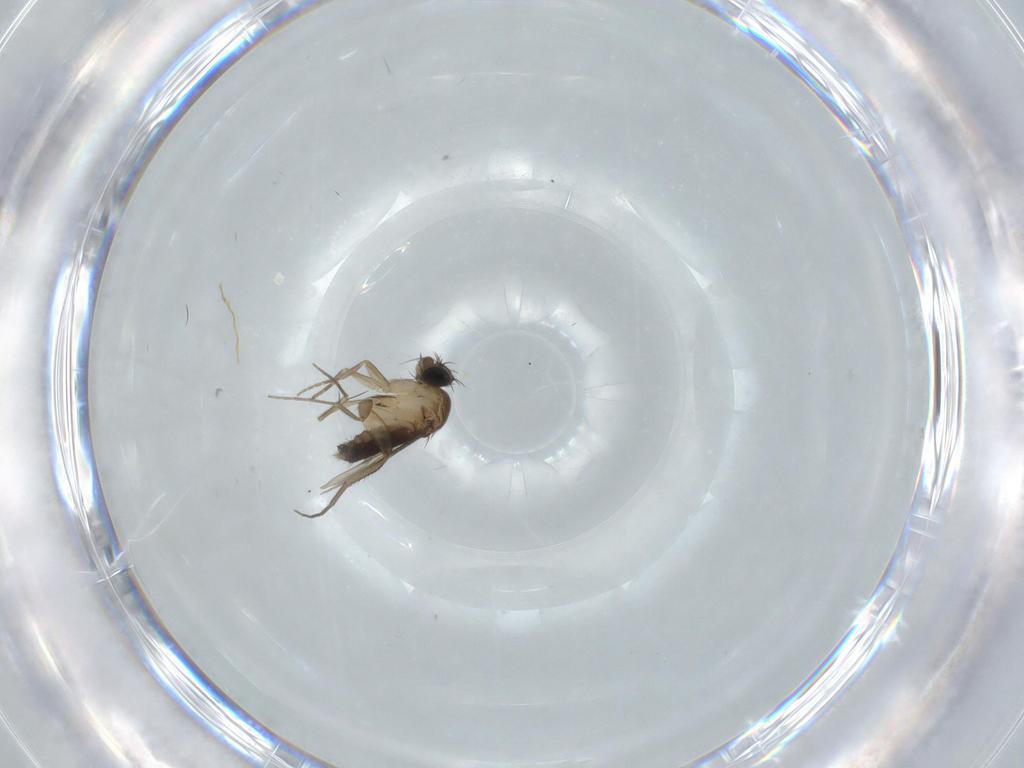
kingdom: Animalia
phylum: Arthropoda
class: Insecta
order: Diptera
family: Phoridae
